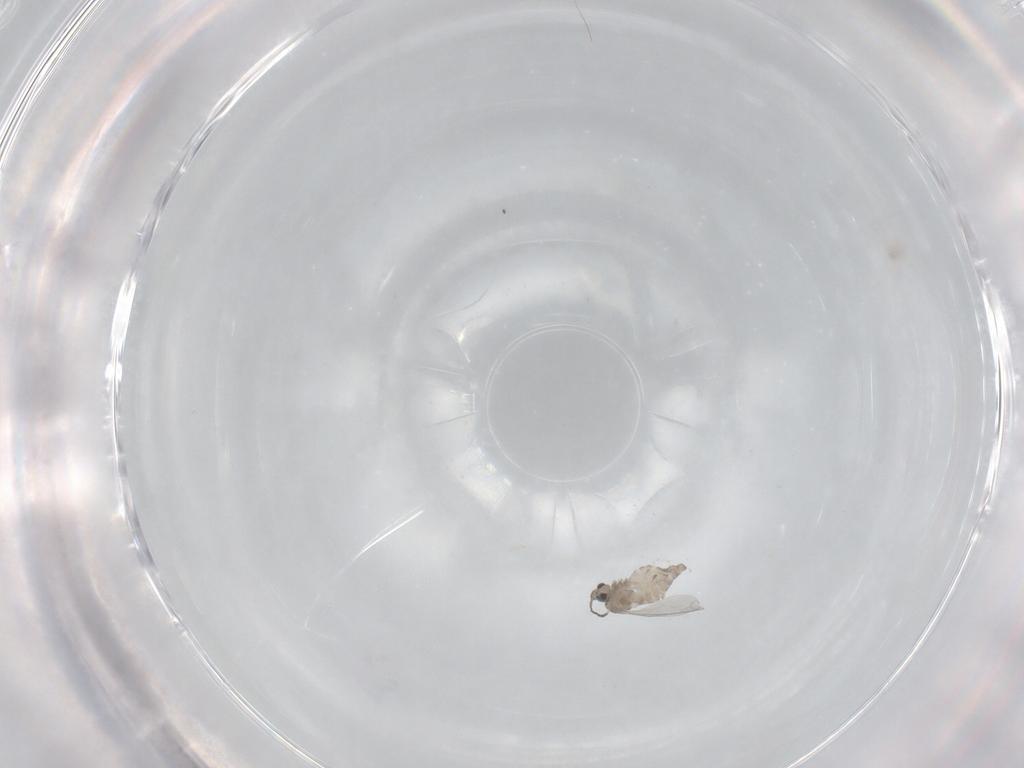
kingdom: Animalia
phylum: Arthropoda
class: Insecta
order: Diptera
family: Cecidomyiidae
